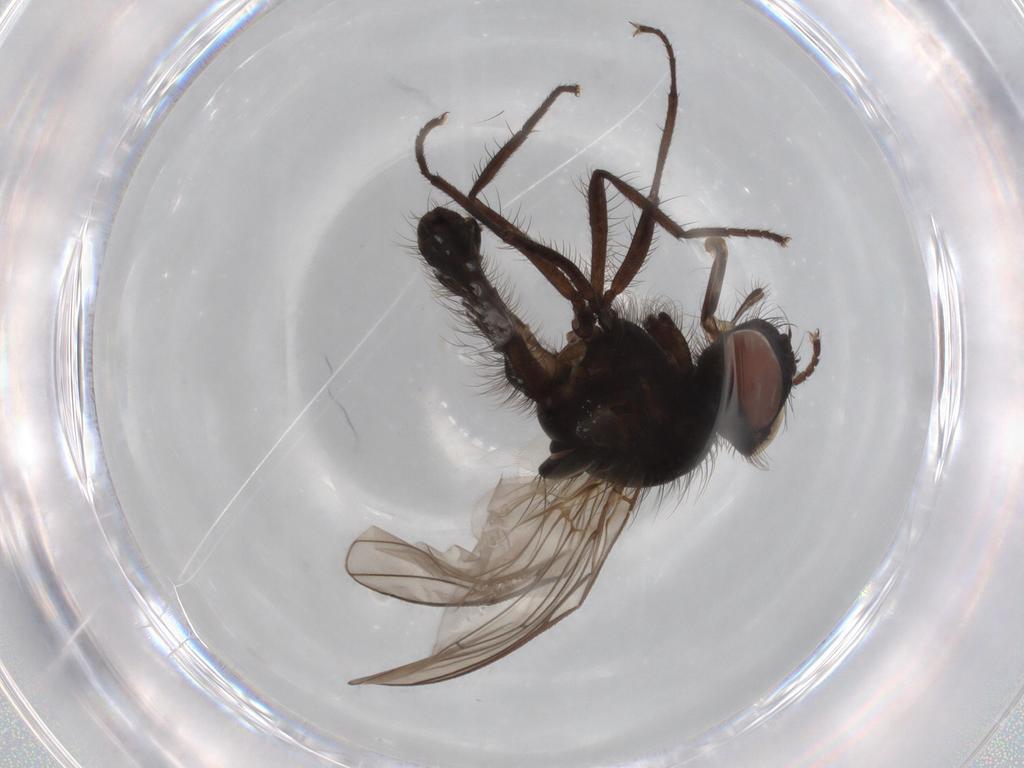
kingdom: Animalia
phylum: Arthropoda
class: Insecta
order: Diptera
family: Anthomyiidae
